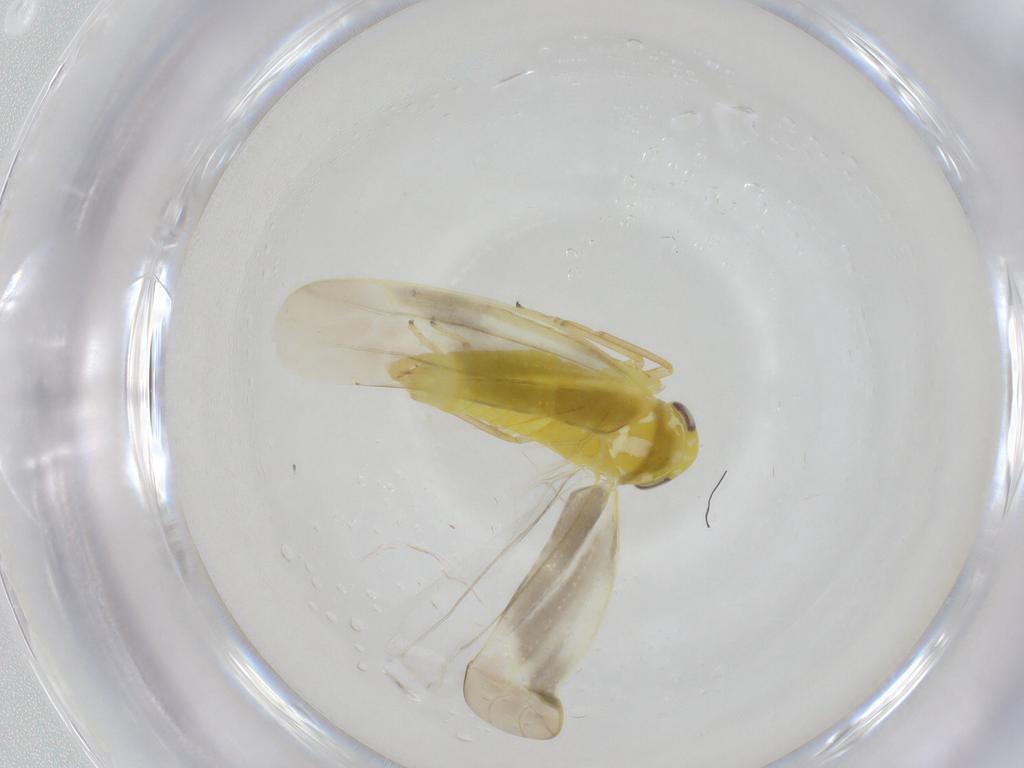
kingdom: Animalia
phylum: Arthropoda
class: Insecta
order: Hemiptera
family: Cicadellidae
